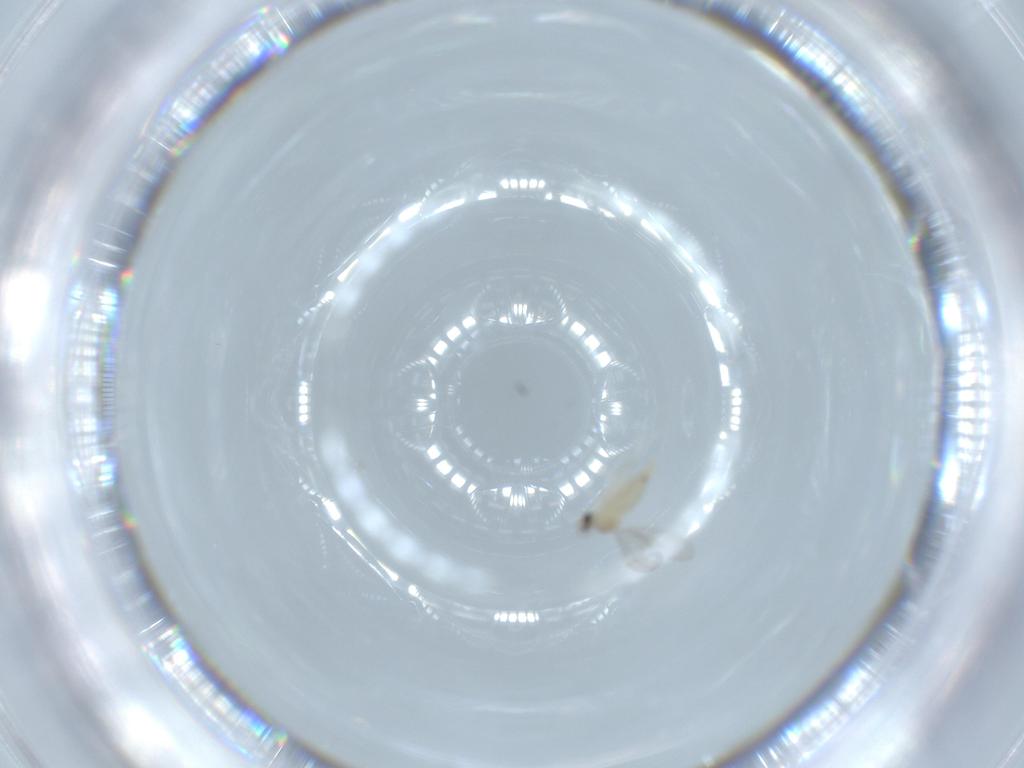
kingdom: Animalia
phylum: Arthropoda
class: Insecta
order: Diptera
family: Cecidomyiidae
